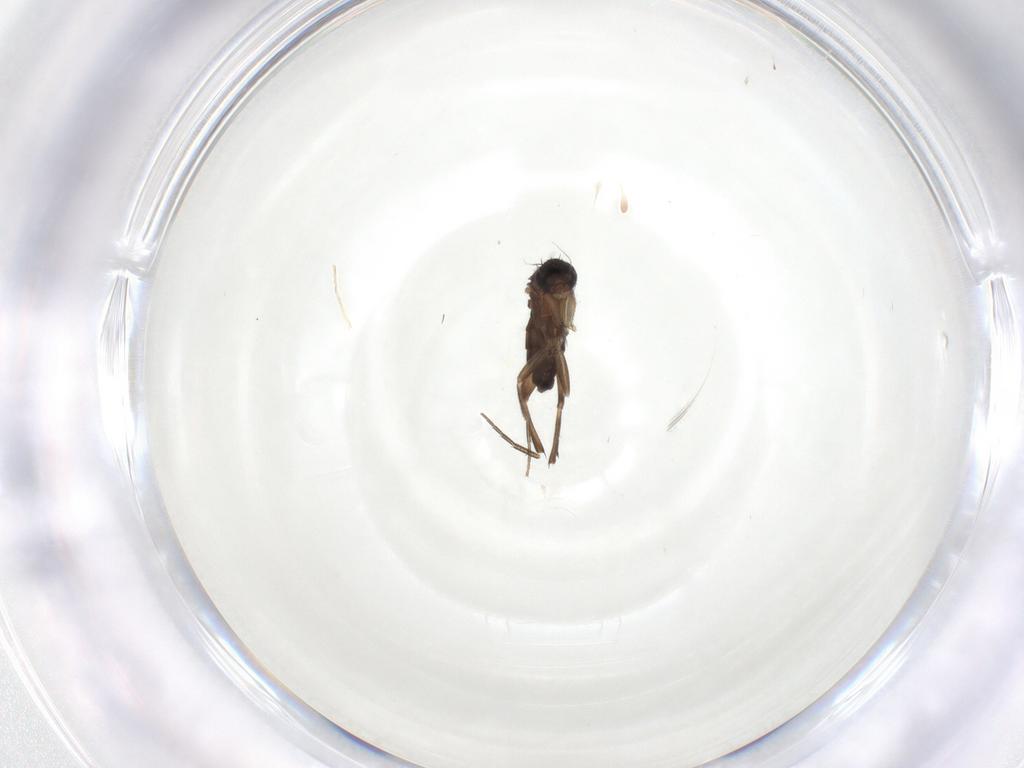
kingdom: Animalia
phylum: Arthropoda
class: Insecta
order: Diptera
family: Phoridae
